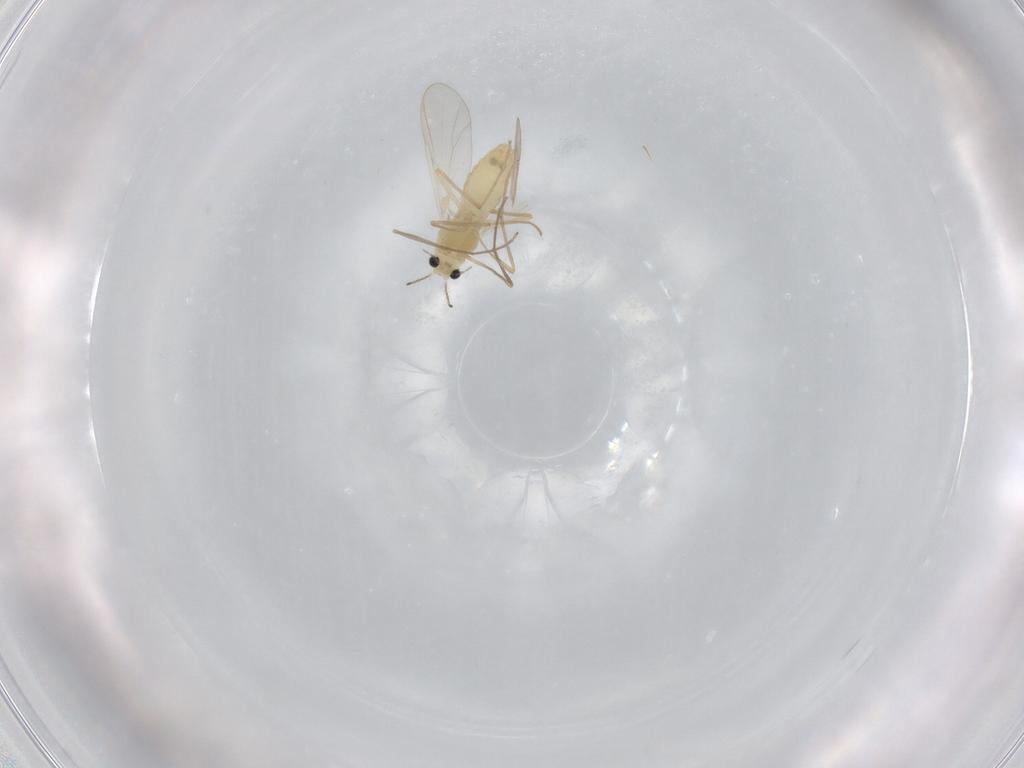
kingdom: Animalia
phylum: Arthropoda
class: Insecta
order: Diptera
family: Chironomidae
